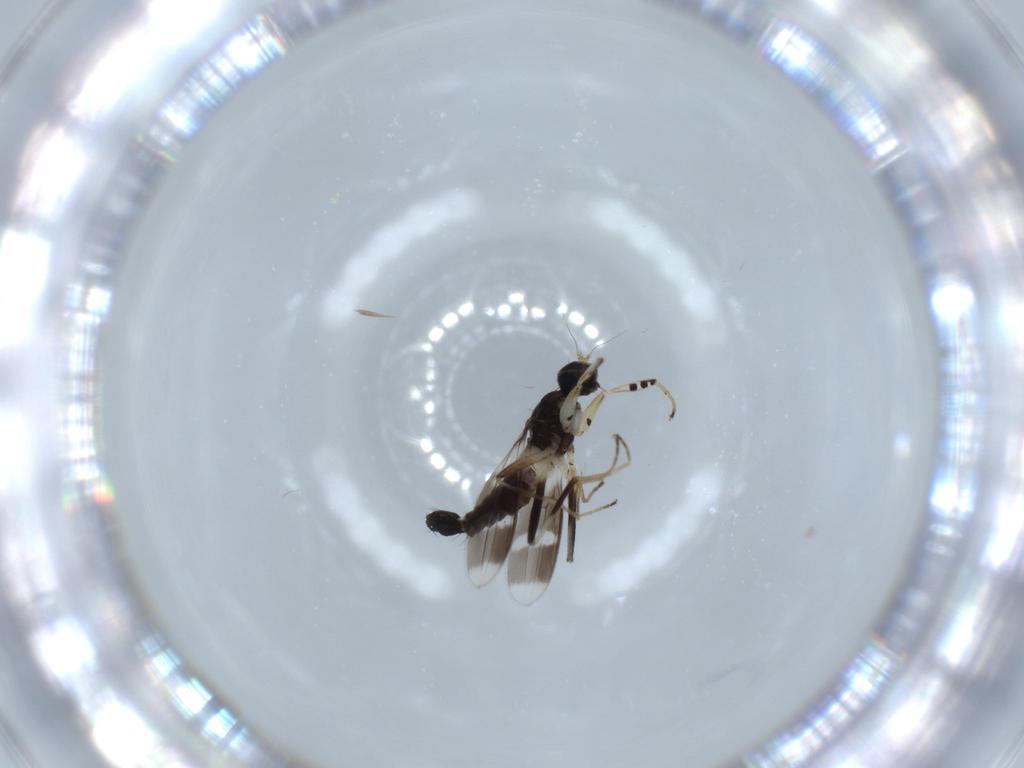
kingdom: Animalia
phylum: Arthropoda
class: Insecta
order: Diptera
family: Hybotidae
